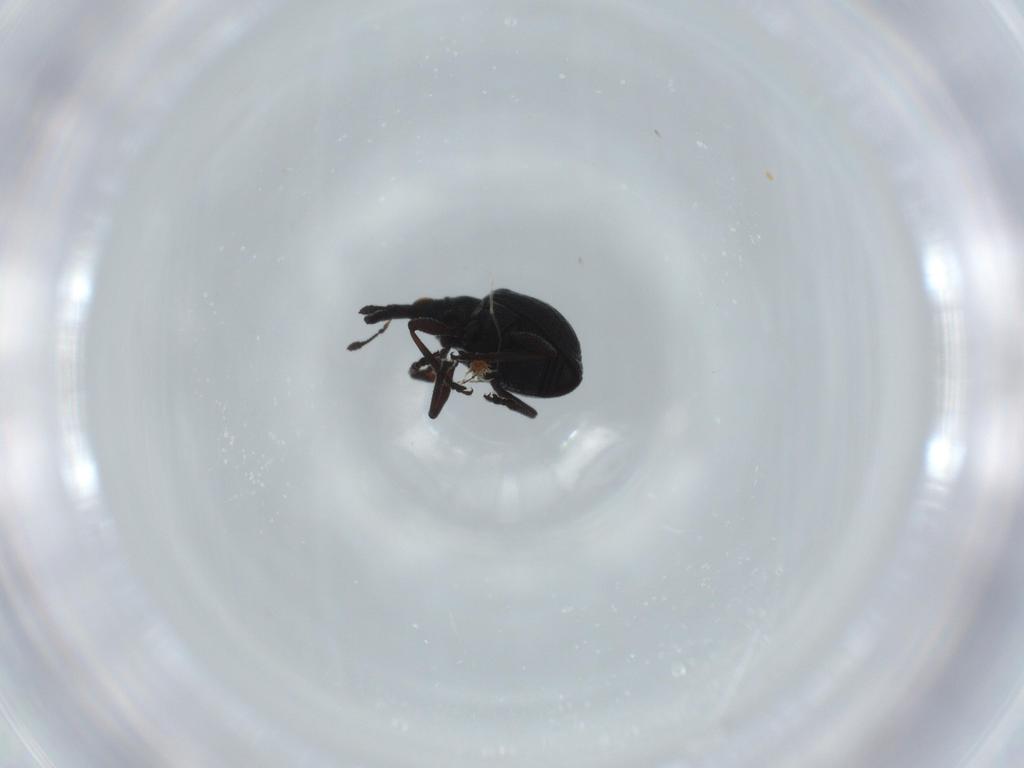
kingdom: Animalia
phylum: Arthropoda
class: Insecta
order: Coleoptera
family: Brentidae
